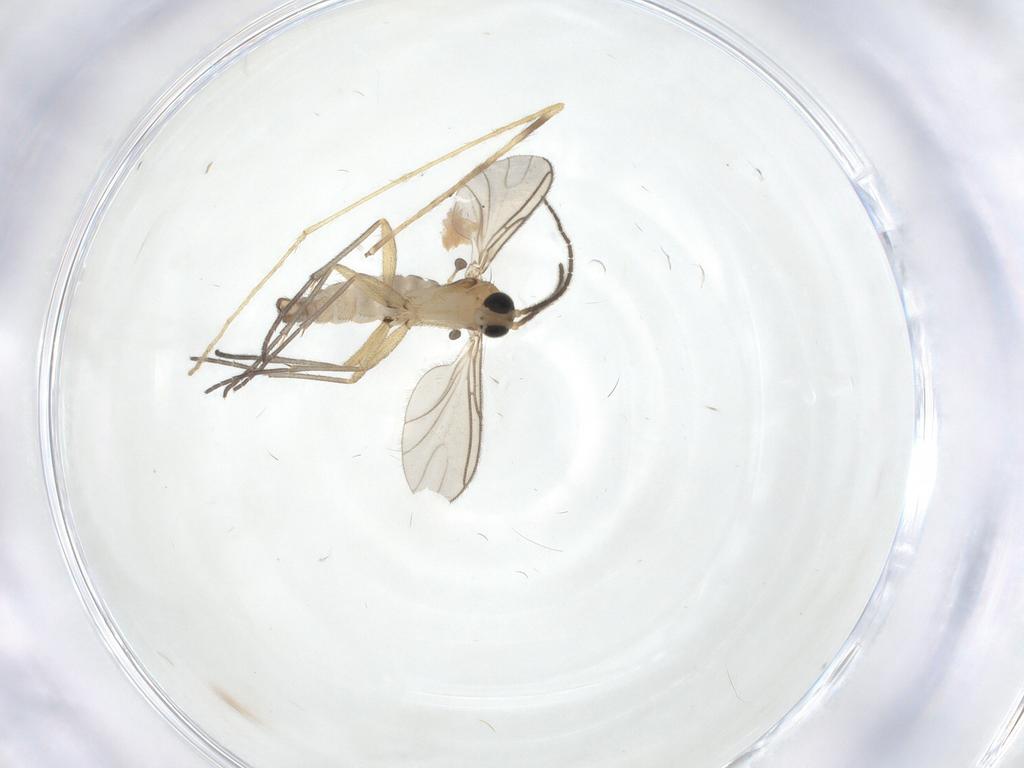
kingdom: Animalia
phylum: Arthropoda
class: Insecta
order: Diptera
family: Limoniidae
